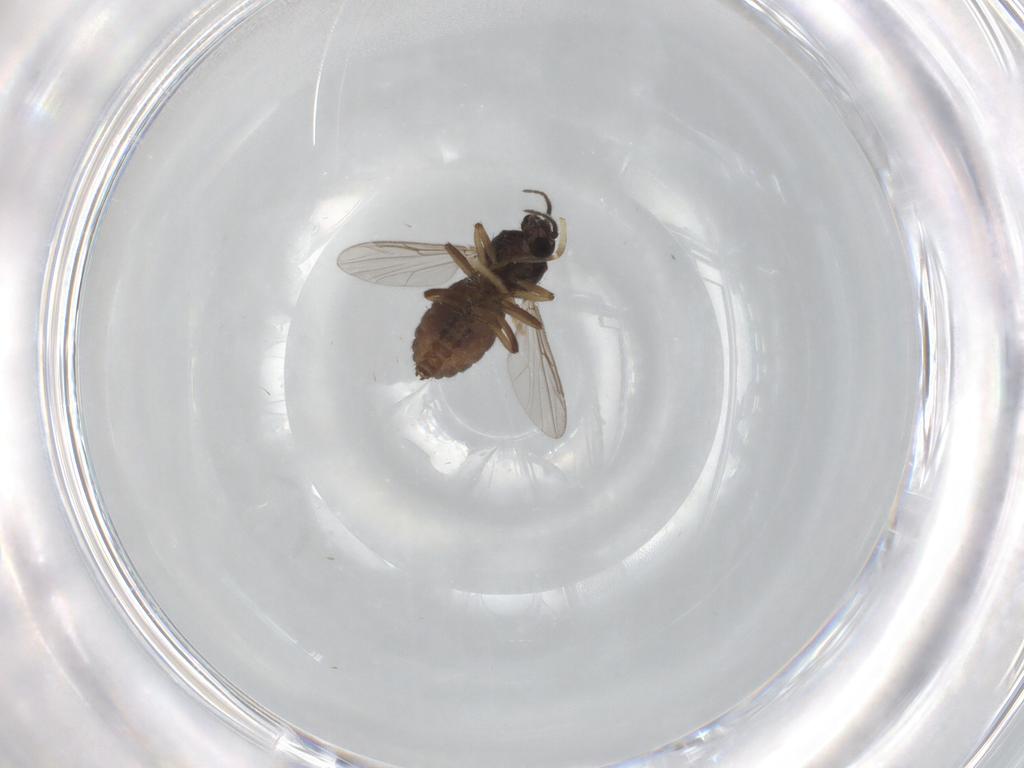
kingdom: Animalia
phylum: Arthropoda
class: Insecta
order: Diptera
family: Ceratopogonidae
